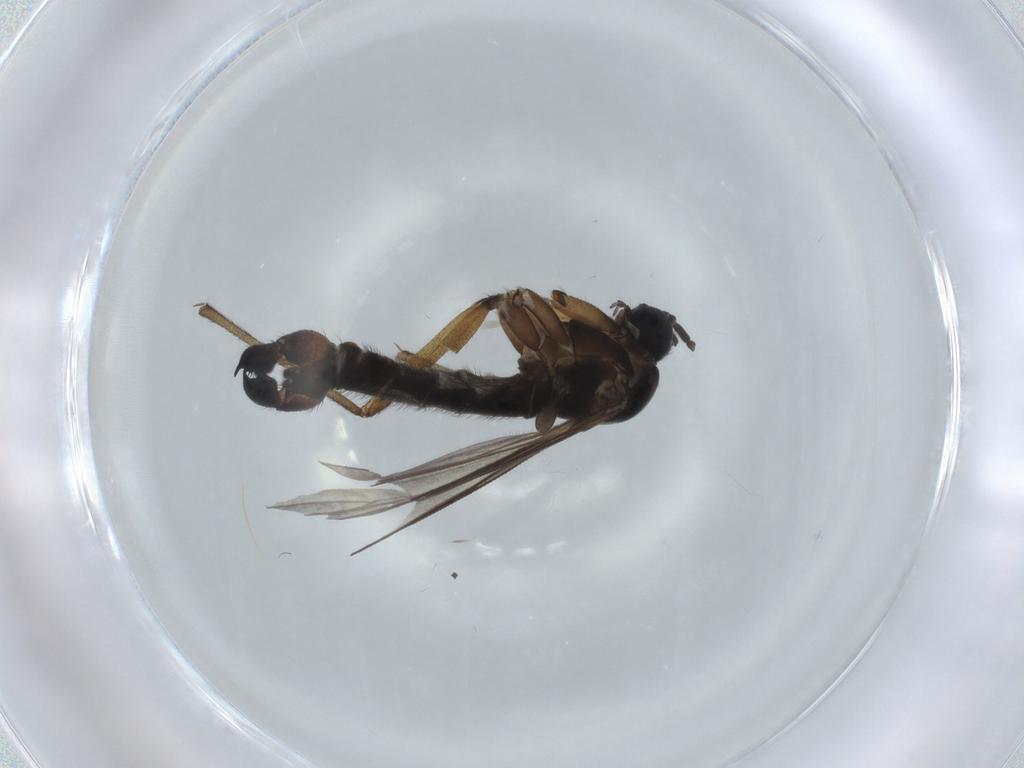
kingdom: Animalia
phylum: Arthropoda
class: Insecta
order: Diptera
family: Sciaridae
